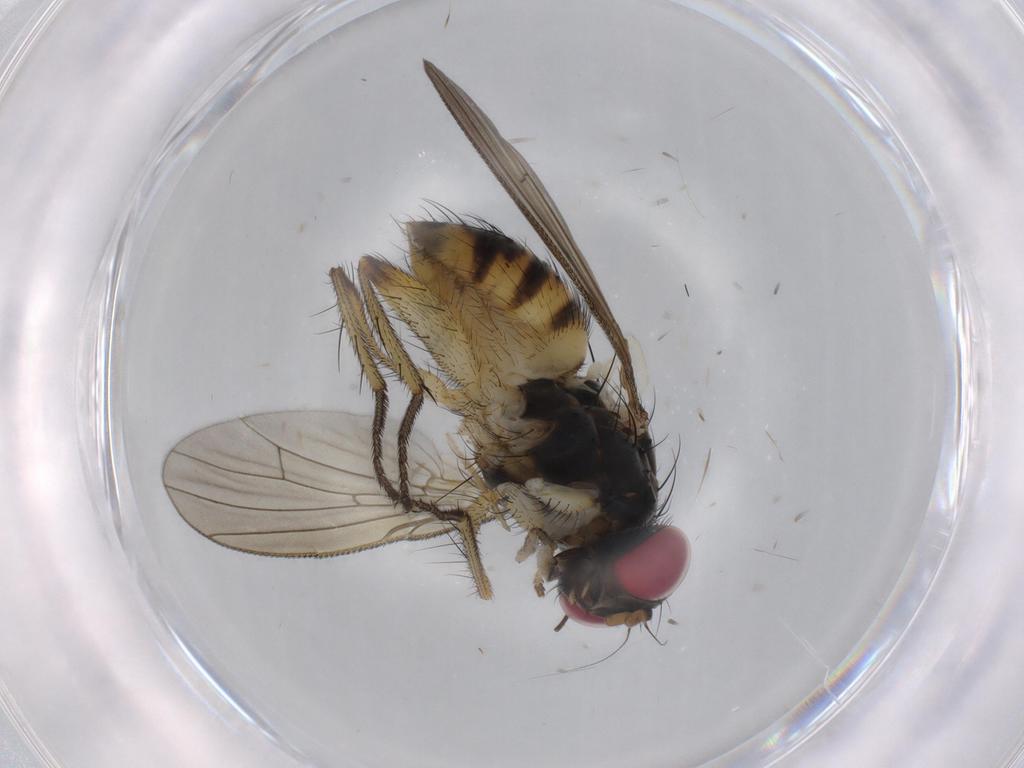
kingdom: Animalia
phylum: Arthropoda
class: Insecta
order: Diptera
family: Psychodidae
